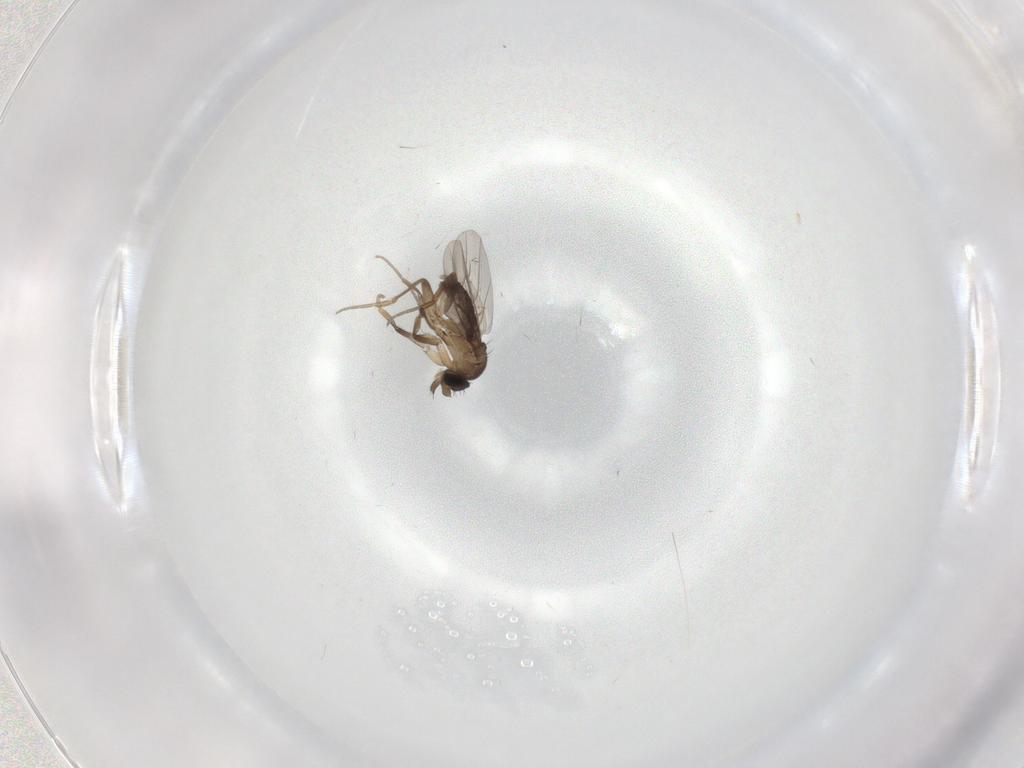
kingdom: Animalia
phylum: Arthropoda
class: Insecta
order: Diptera
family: Phoridae
